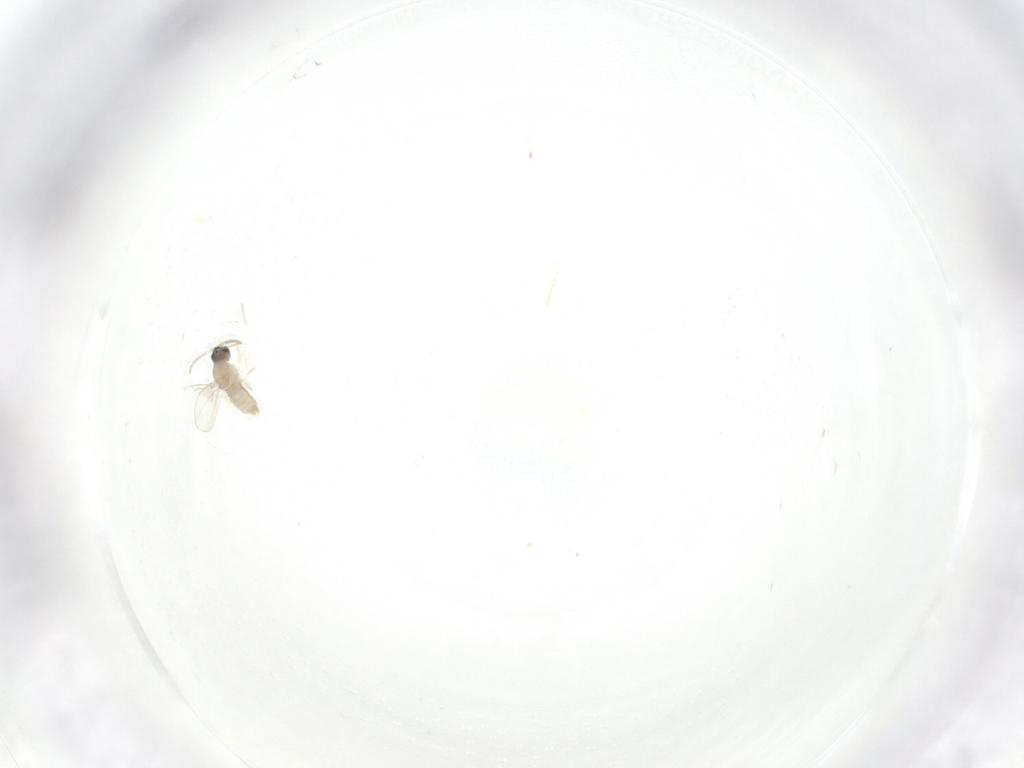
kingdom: Animalia
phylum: Arthropoda
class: Insecta
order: Diptera
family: Cecidomyiidae
